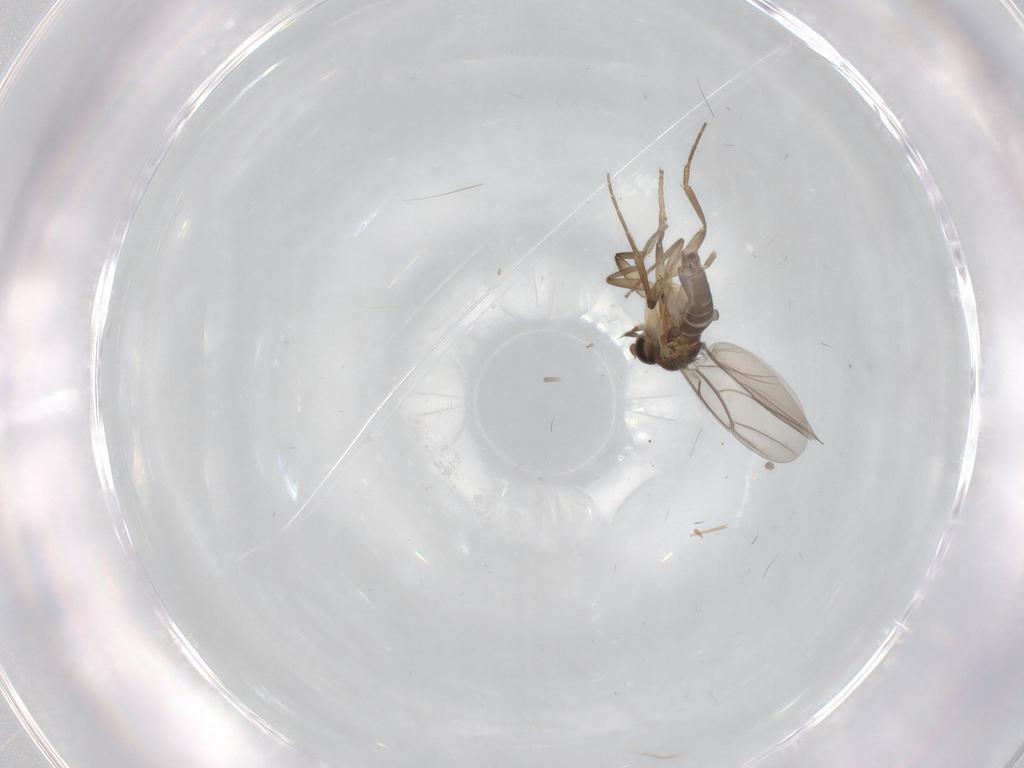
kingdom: Animalia
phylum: Arthropoda
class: Insecta
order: Diptera
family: Phoridae
